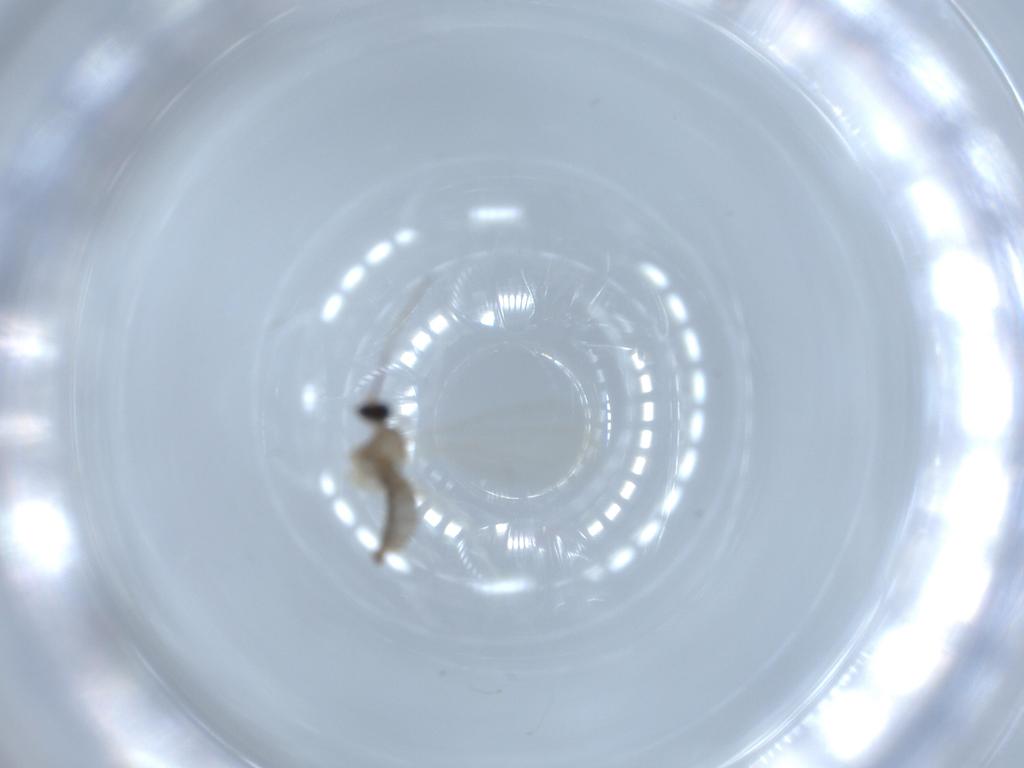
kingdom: Animalia
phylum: Arthropoda
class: Insecta
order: Diptera
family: Cecidomyiidae
